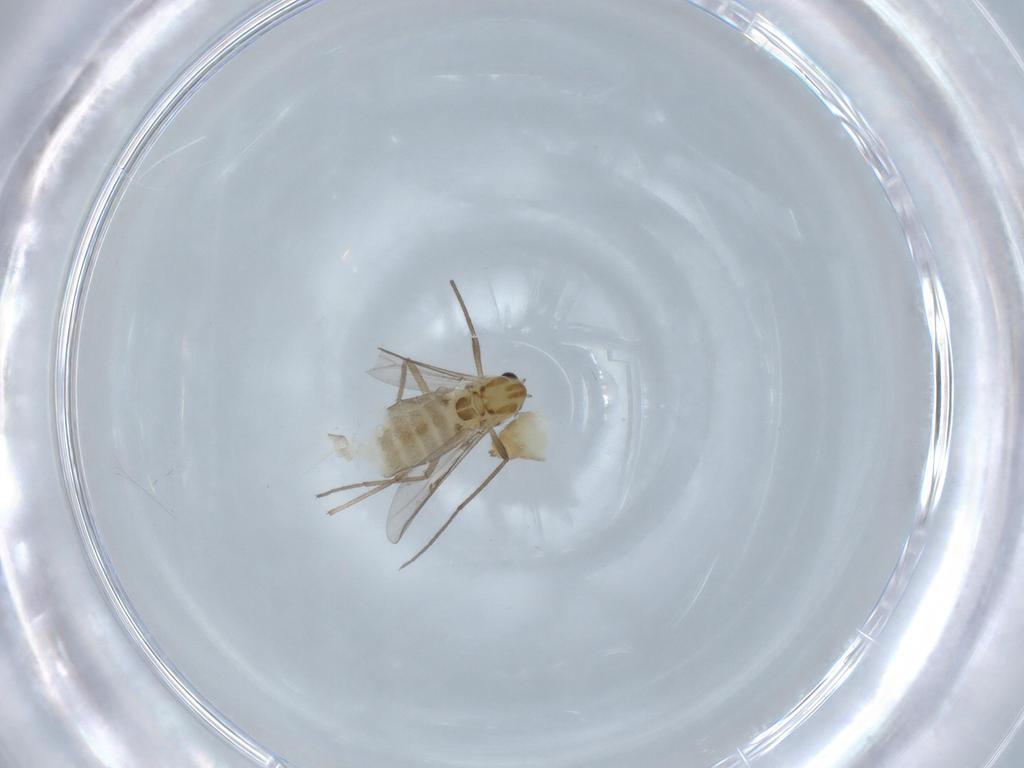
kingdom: Animalia
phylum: Arthropoda
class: Insecta
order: Diptera
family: Chironomidae
